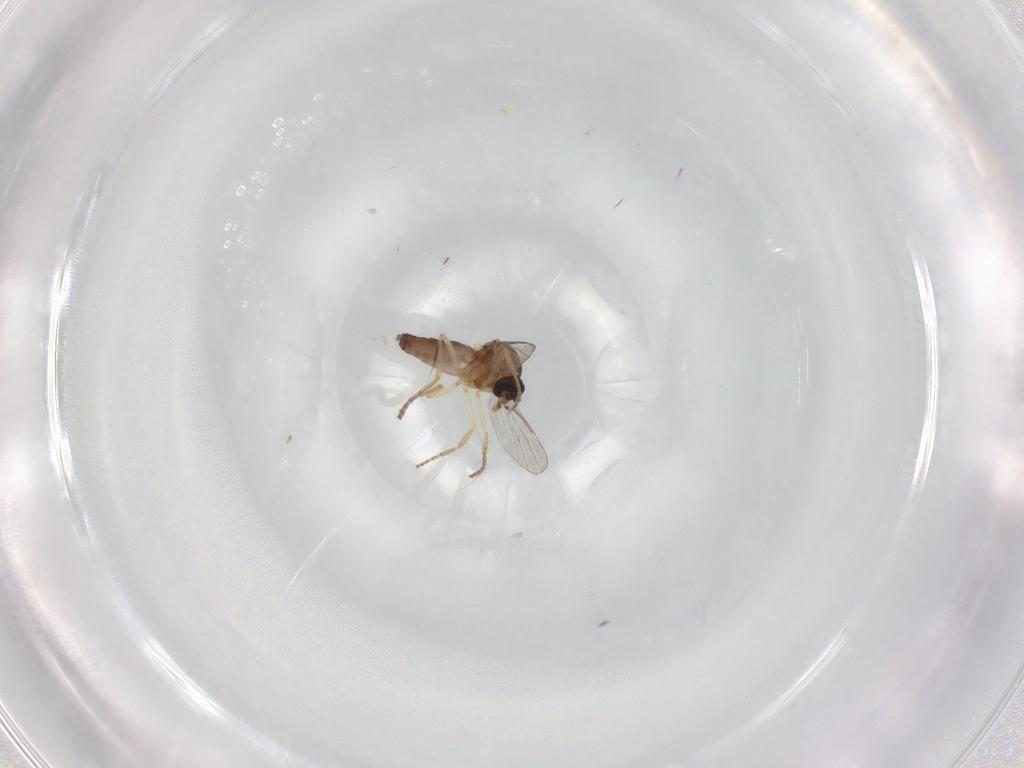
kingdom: Animalia
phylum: Arthropoda
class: Insecta
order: Diptera
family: Ceratopogonidae
